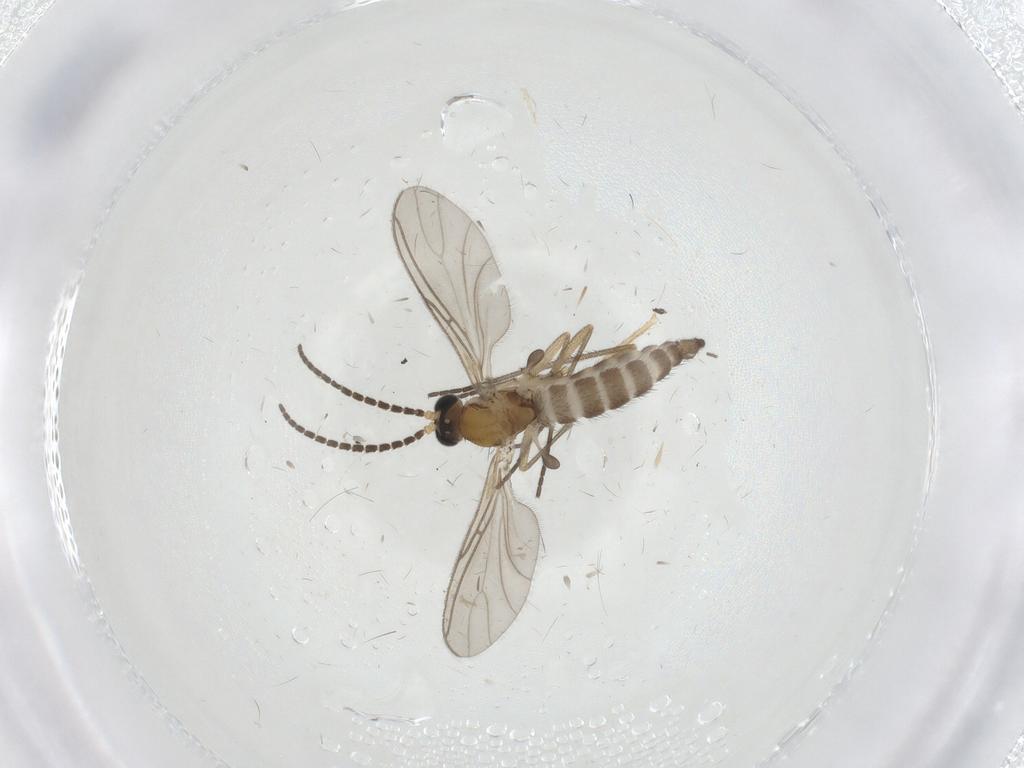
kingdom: Animalia
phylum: Arthropoda
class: Insecta
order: Diptera
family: Sciaridae
